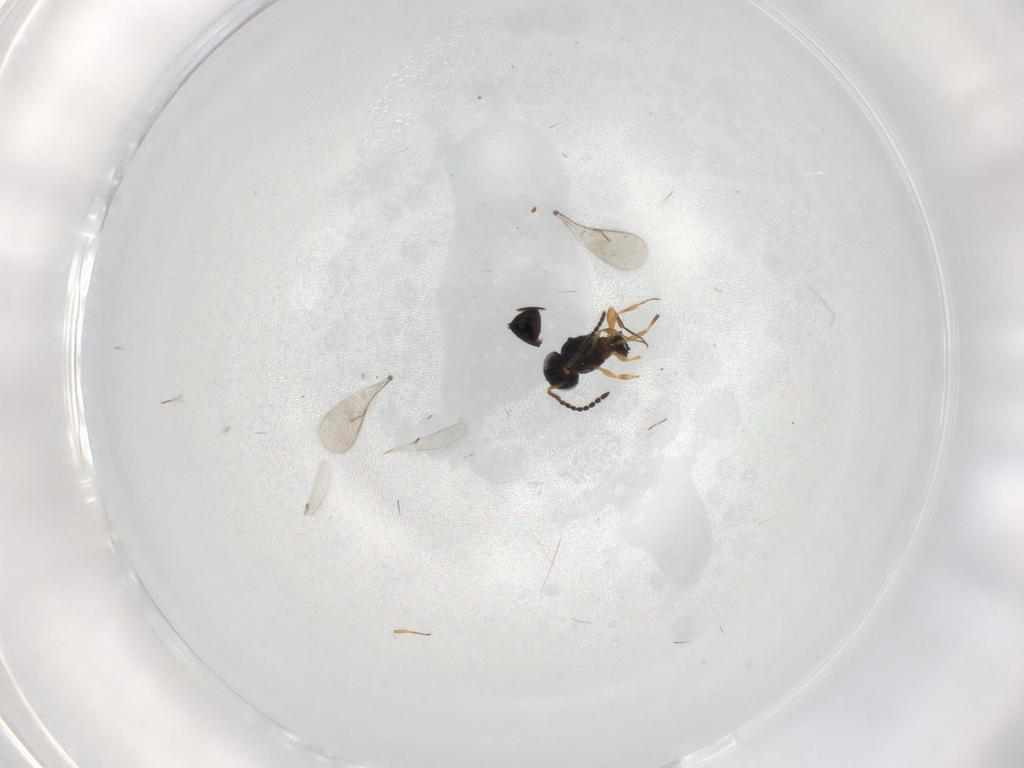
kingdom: Animalia
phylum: Arthropoda
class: Insecta
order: Hymenoptera
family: Scelionidae
